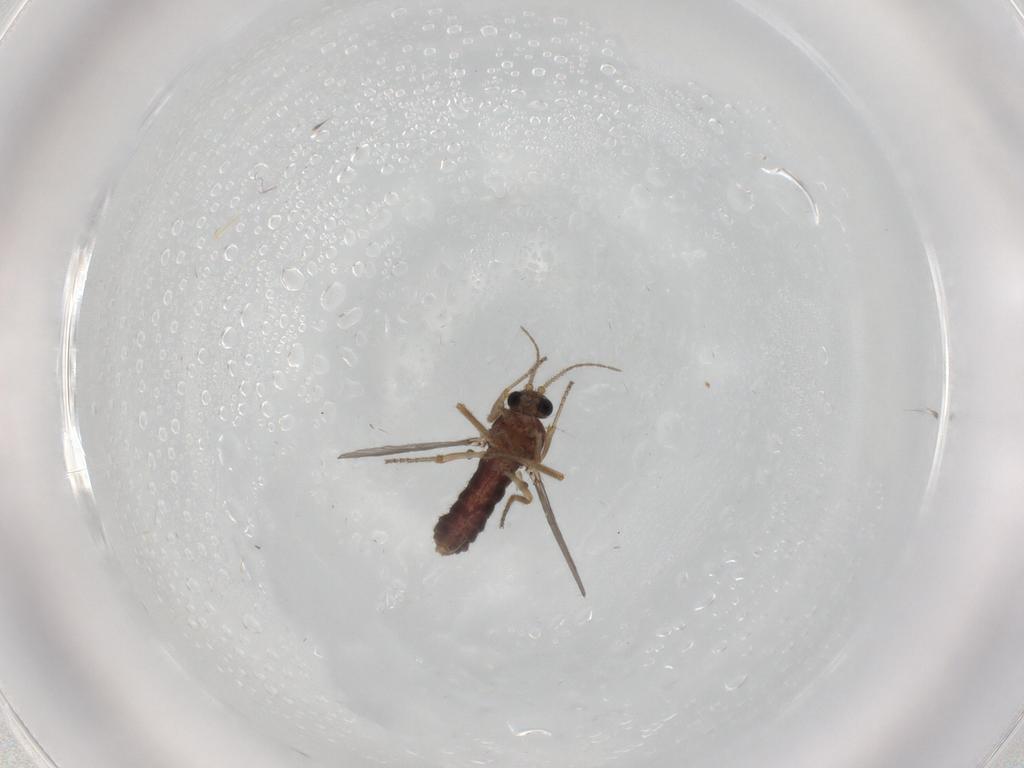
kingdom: Animalia
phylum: Arthropoda
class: Insecta
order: Diptera
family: Ceratopogonidae
